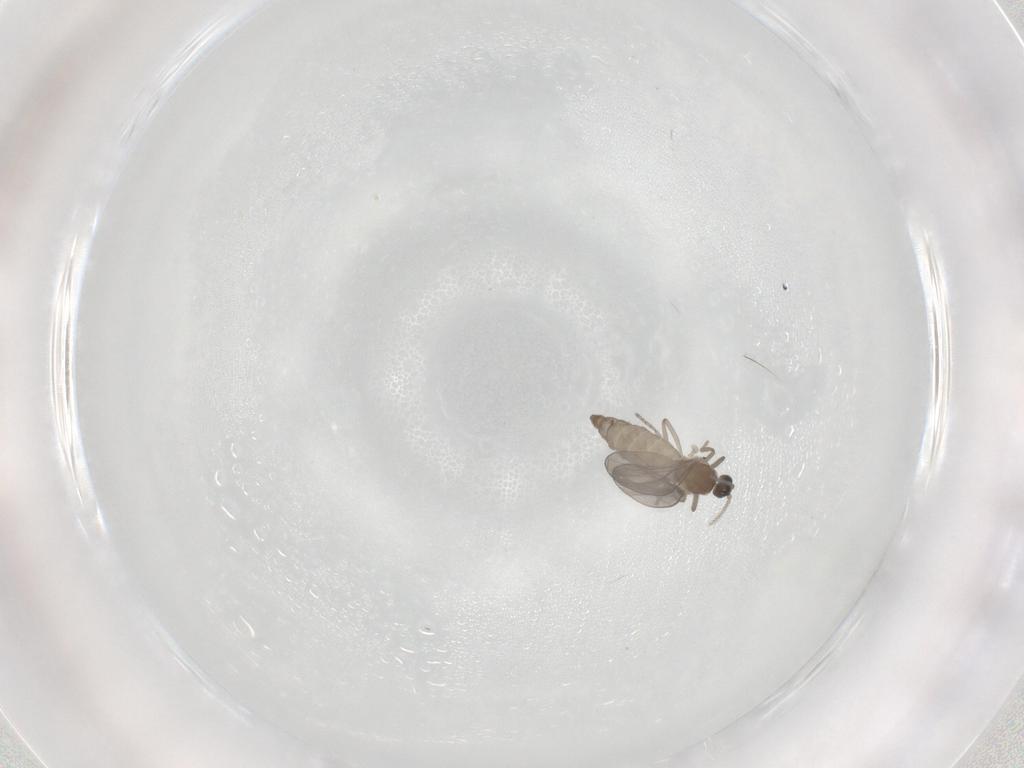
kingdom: Animalia
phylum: Arthropoda
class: Insecta
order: Diptera
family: Cecidomyiidae
